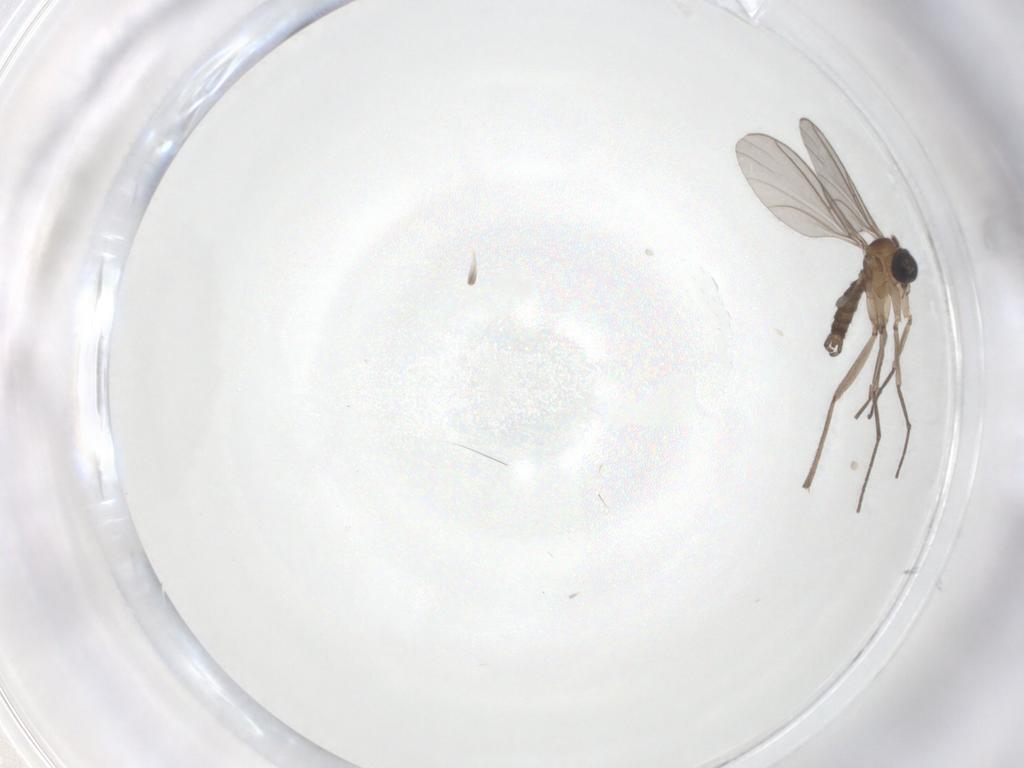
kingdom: Animalia
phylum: Arthropoda
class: Insecta
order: Diptera
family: Sciaridae
